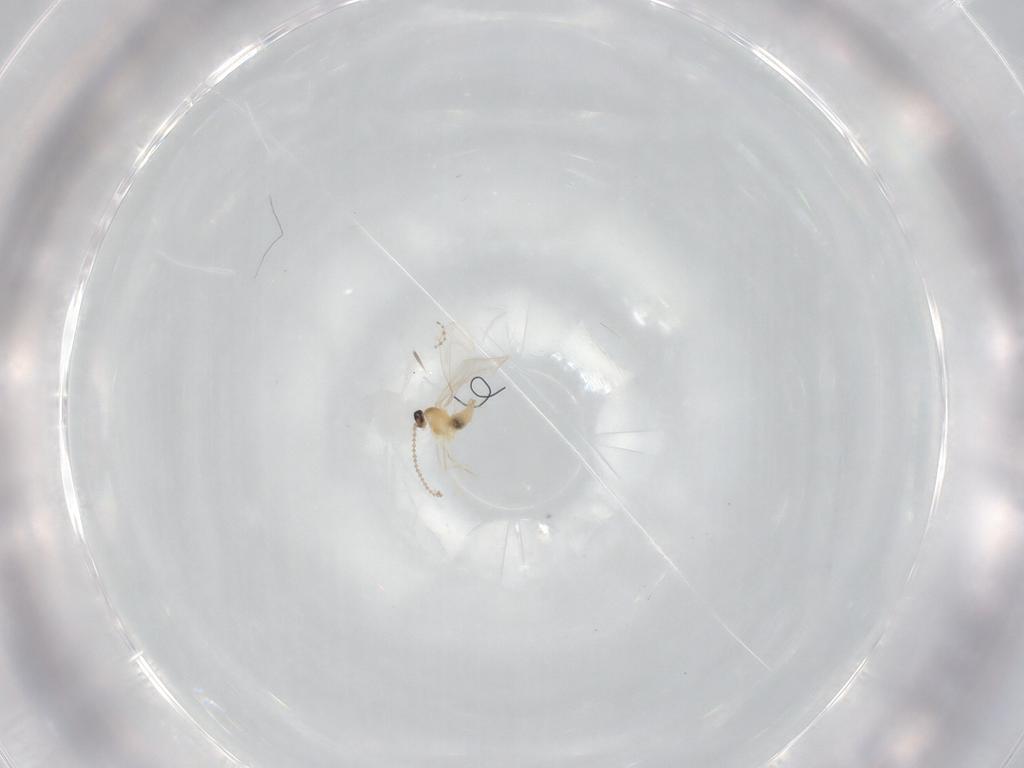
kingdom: Animalia
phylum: Arthropoda
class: Insecta
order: Diptera
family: Cecidomyiidae
